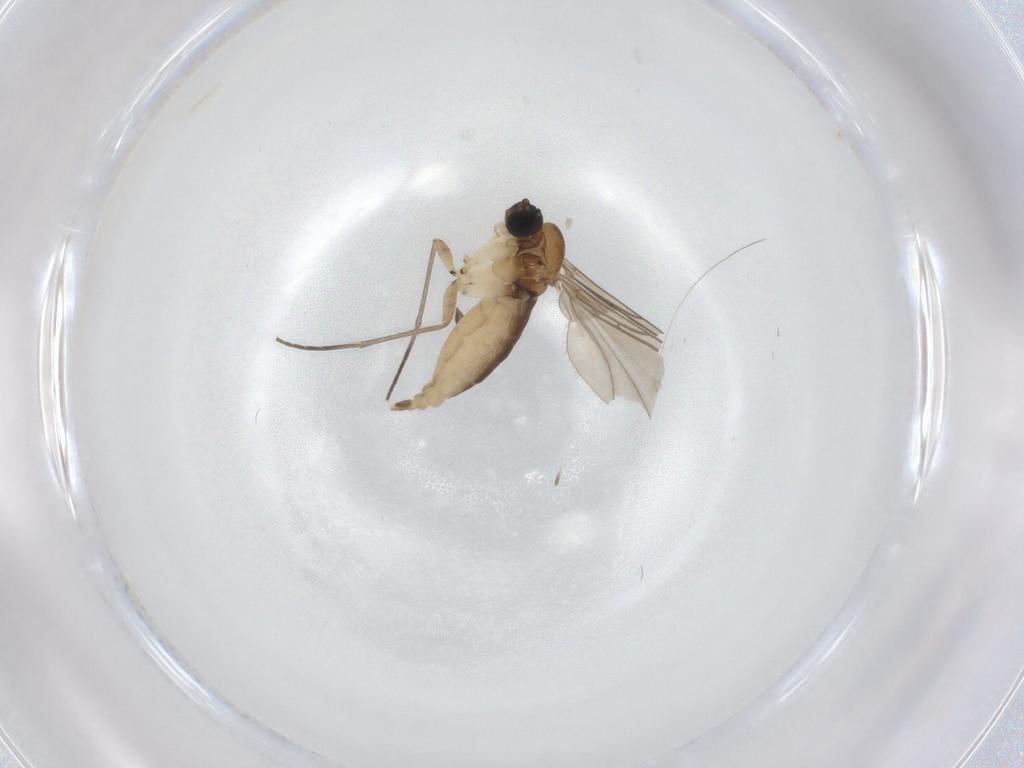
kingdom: Animalia
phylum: Arthropoda
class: Insecta
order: Diptera
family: Sciaridae
